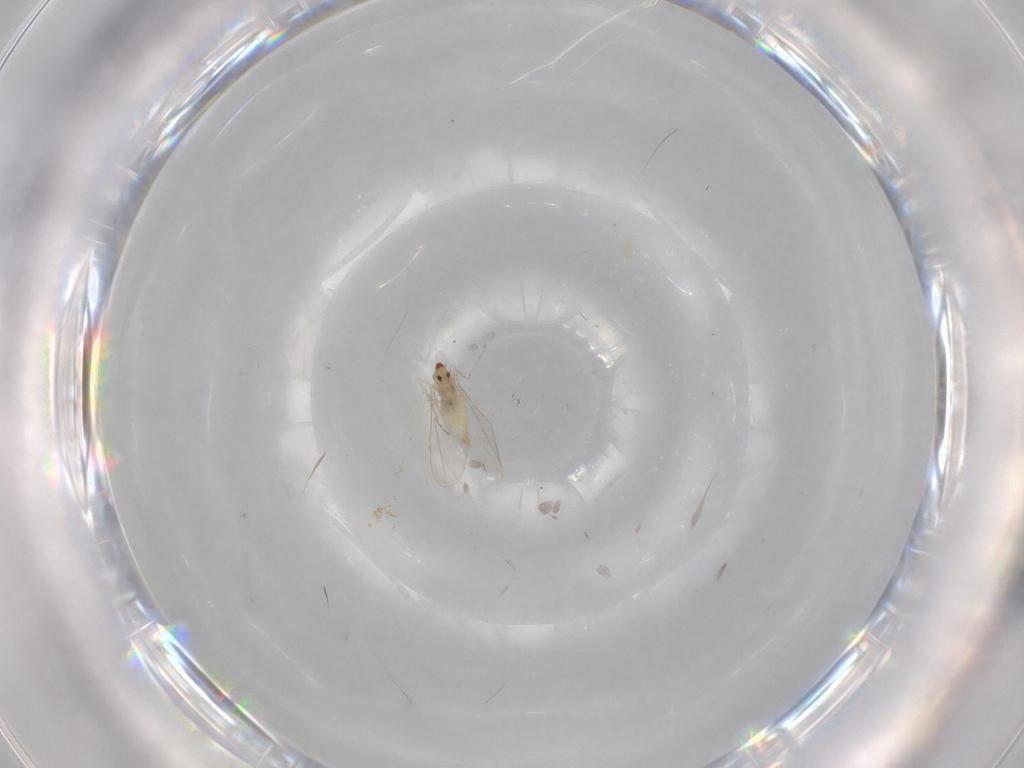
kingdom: Animalia
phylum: Arthropoda
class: Insecta
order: Diptera
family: Cecidomyiidae
